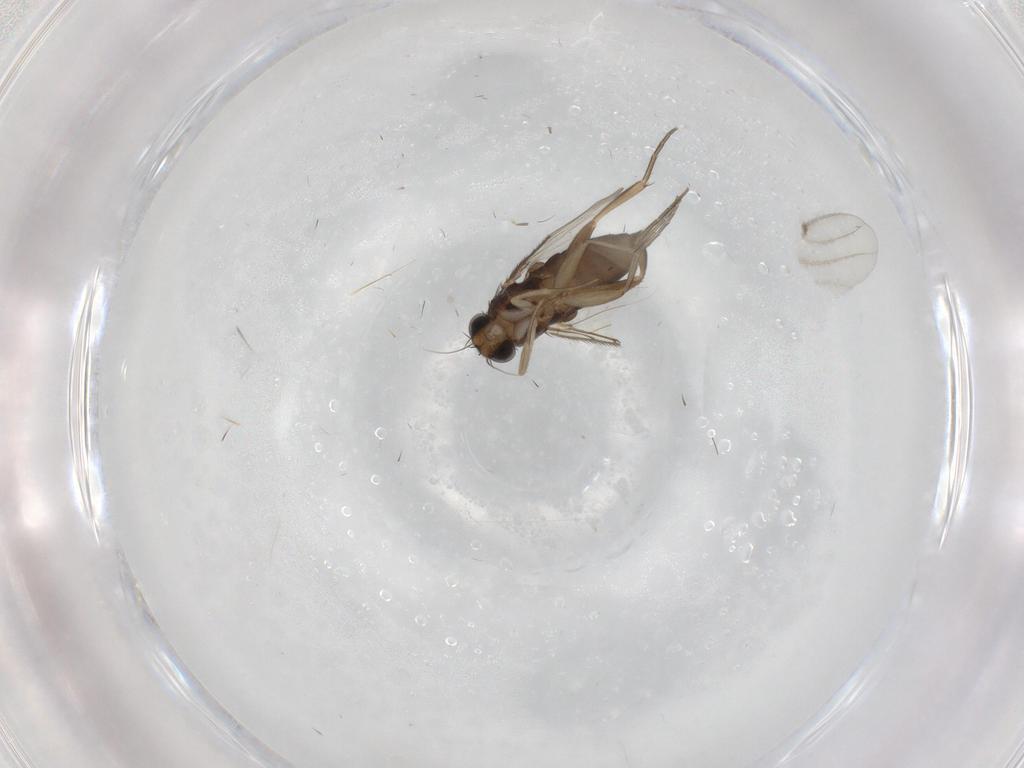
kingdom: Animalia
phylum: Arthropoda
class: Insecta
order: Diptera
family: Phoridae
